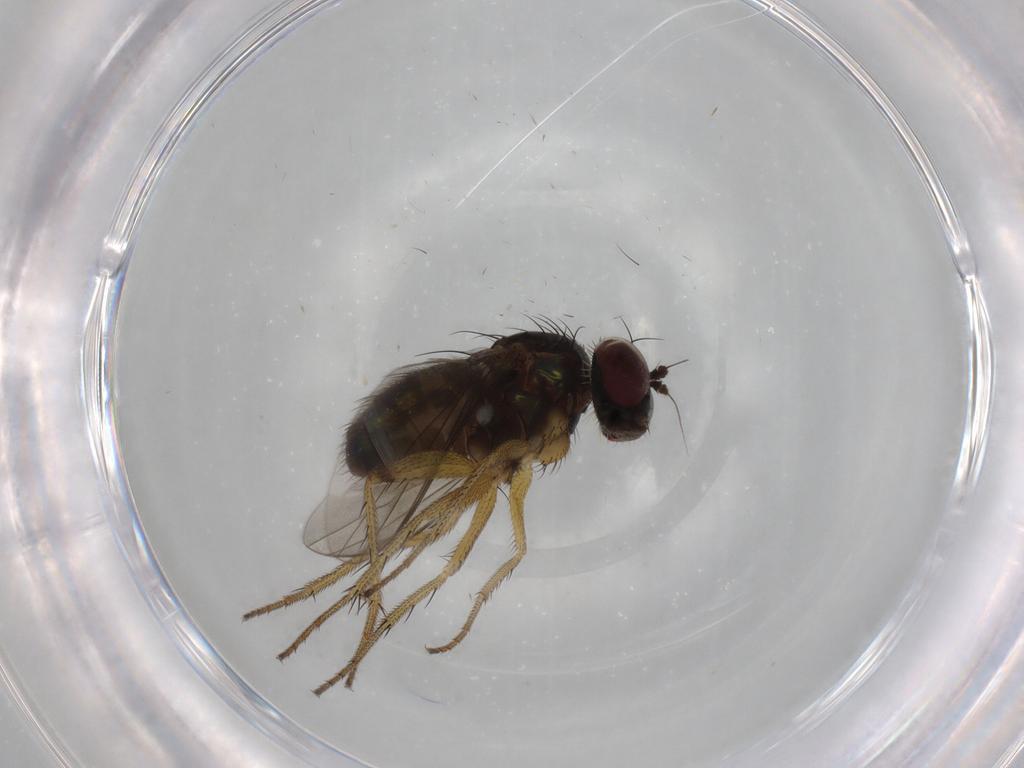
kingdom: Animalia
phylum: Arthropoda
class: Insecta
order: Diptera
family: Dolichopodidae
